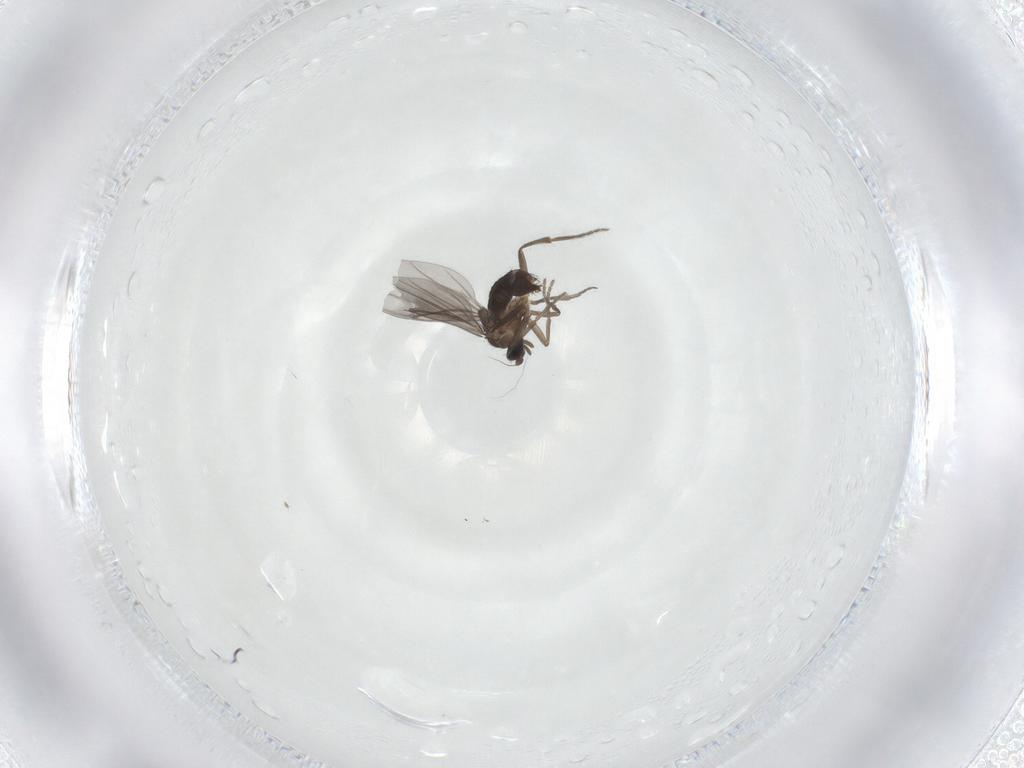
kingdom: Animalia
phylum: Arthropoda
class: Insecta
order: Diptera
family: Phoridae
